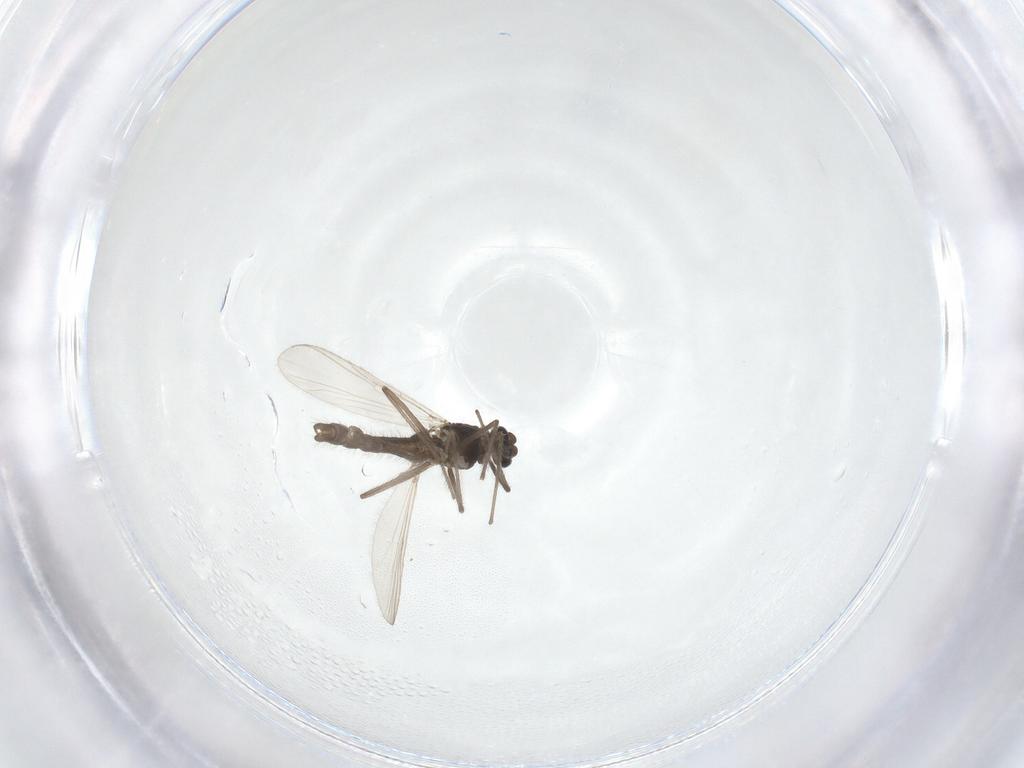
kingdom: Animalia
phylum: Arthropoda
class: Insecta
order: Diptera
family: Chironomidae
